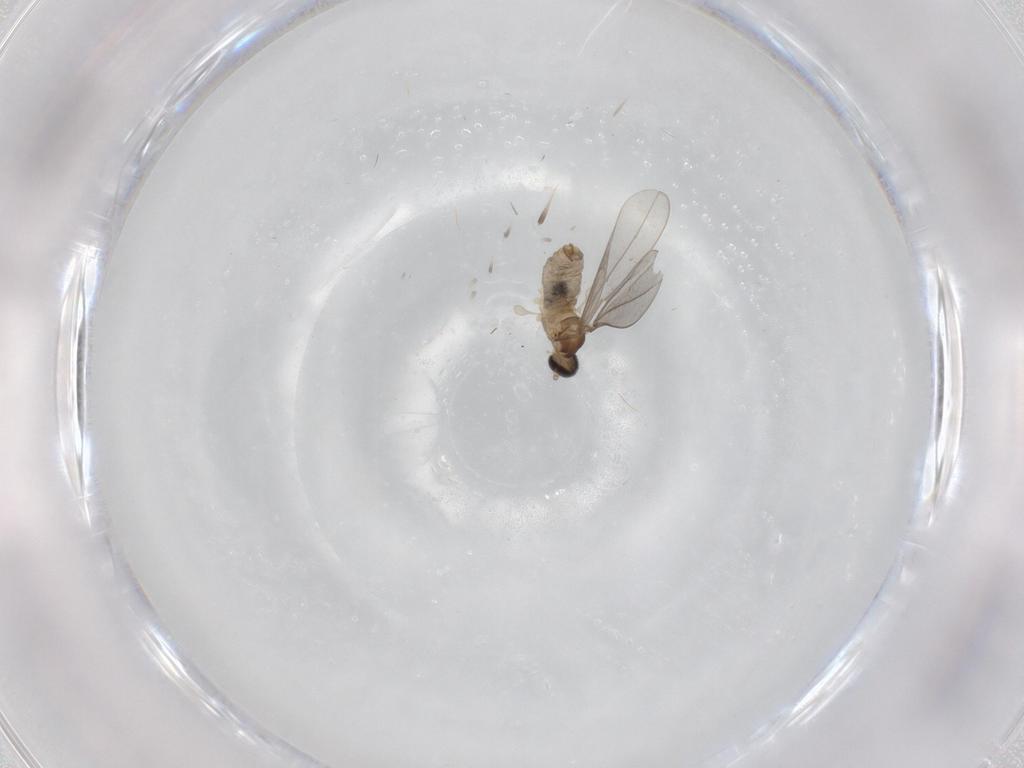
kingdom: Animalia
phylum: Arthropoda
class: Insecta
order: Diptera
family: Cecidomyiidae
